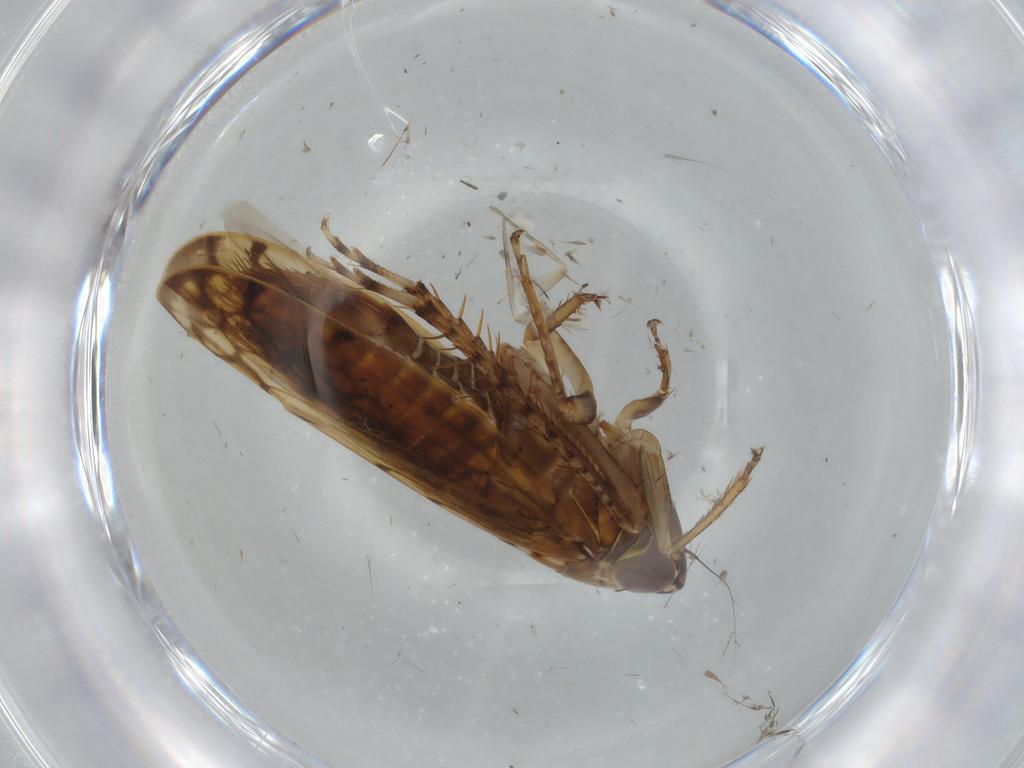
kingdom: Animalia
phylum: Arthropoda
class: Insecta
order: Hemiptera
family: Cicadellidae
